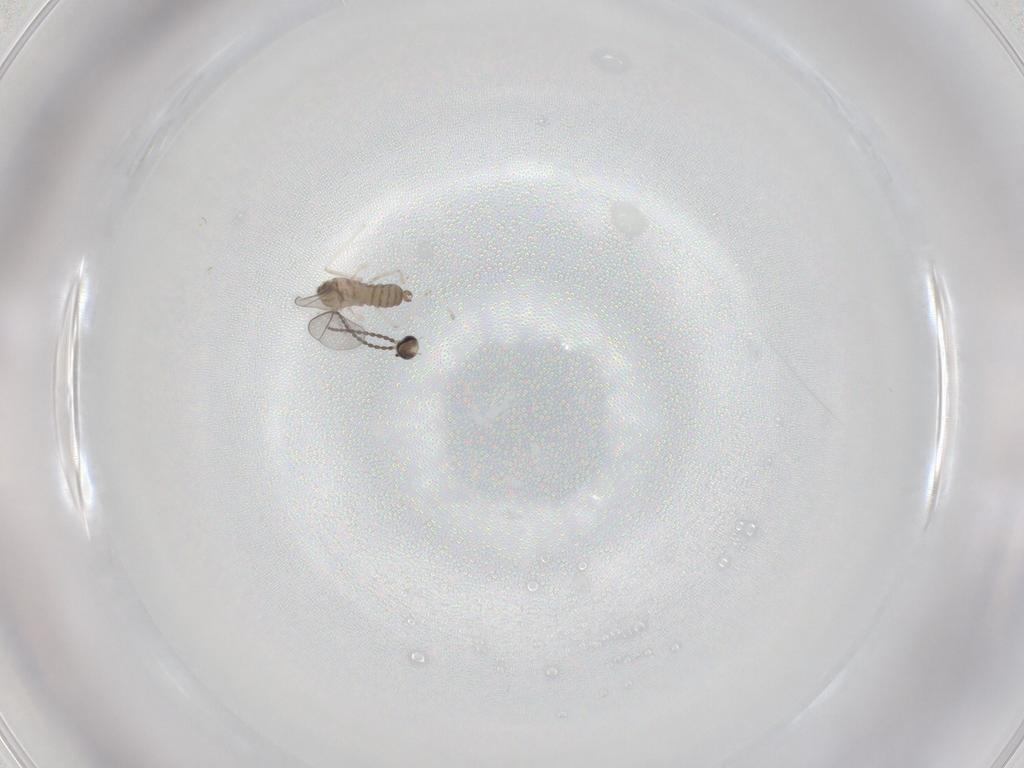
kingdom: Animalia
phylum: Arthropoda
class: Insecta
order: Diptera
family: Cecidomyiidae
